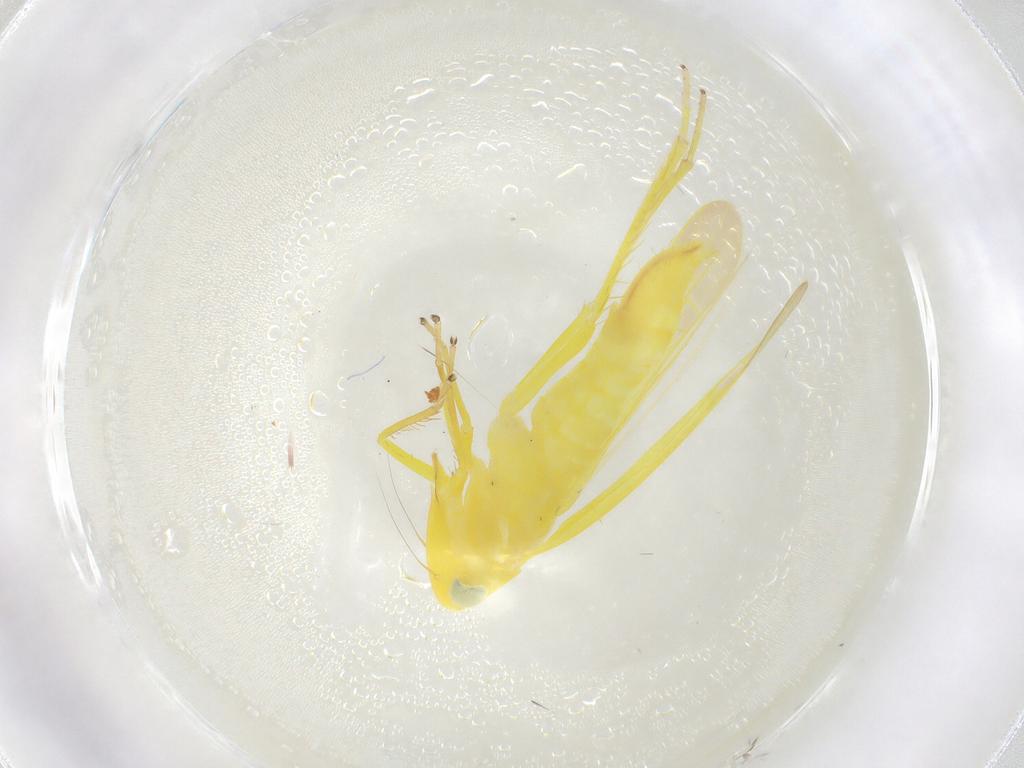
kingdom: Animalia
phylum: Arthropoda
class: Insecta
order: Hemiptera
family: Cicadellidae
